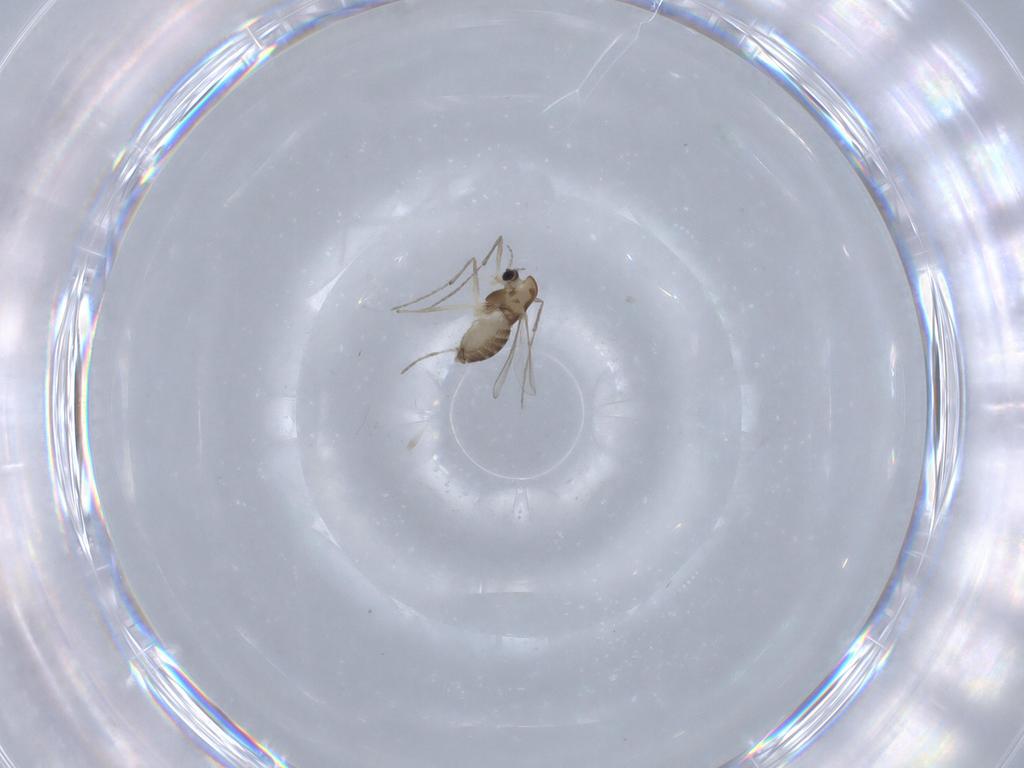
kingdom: Animalia
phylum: Arthropoda
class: Insecta
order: Diptera
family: Chironomidae
